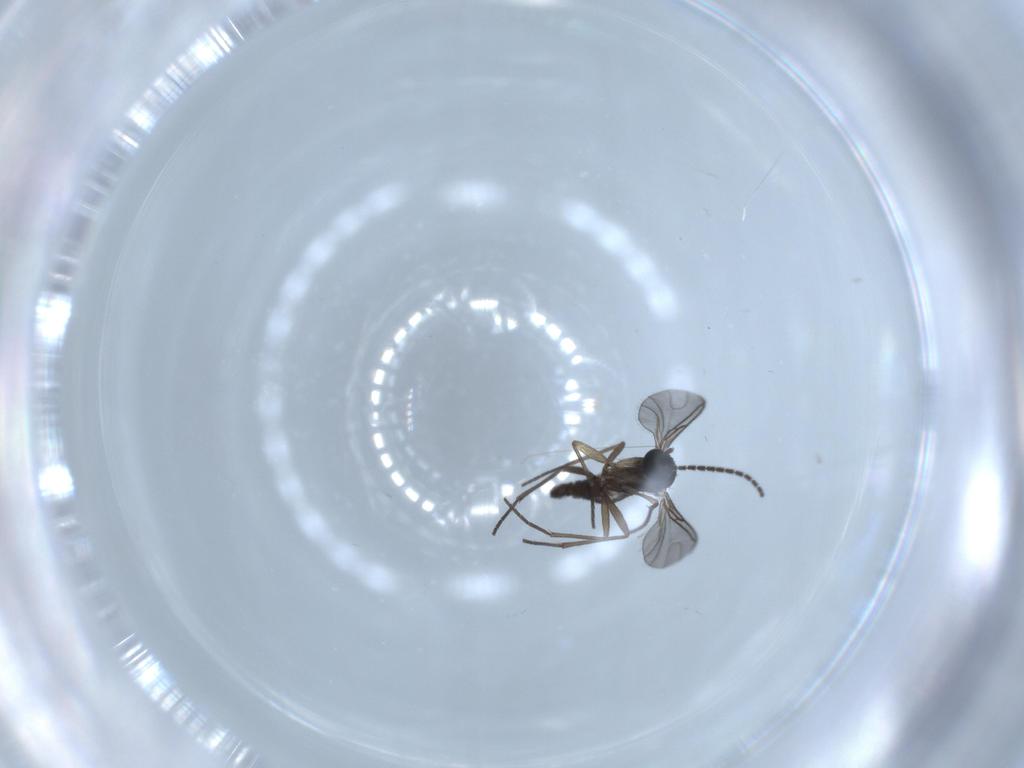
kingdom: Animalia
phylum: Arthropoda
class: Insecta
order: Diptera
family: Sciaridae
